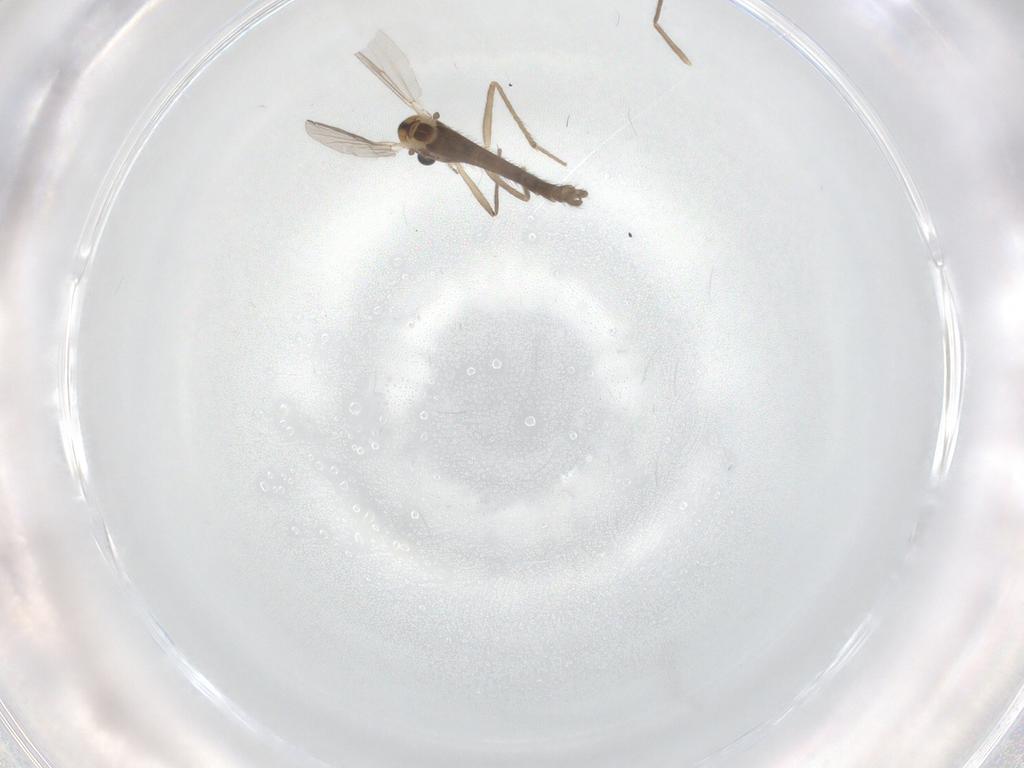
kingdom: Animalia
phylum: Arthropoda
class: Insecta
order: Diptera
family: Chironomidae
